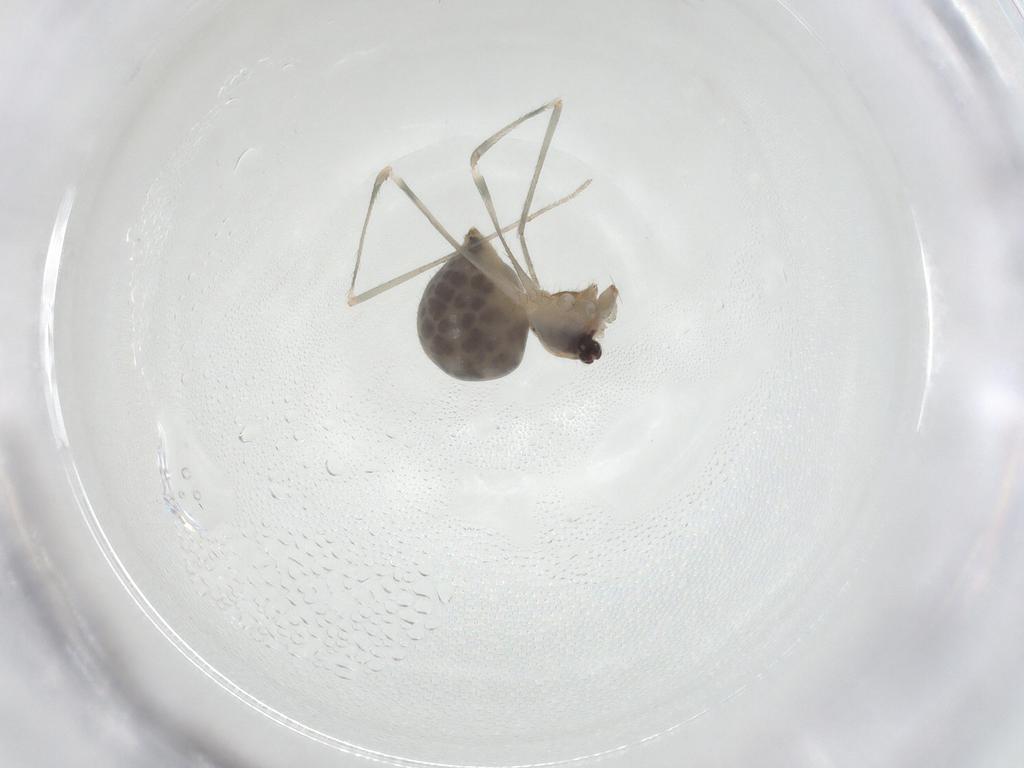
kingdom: Animalia
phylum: Arthropoda
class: Arachnida
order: Araneae
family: Pholcidae
